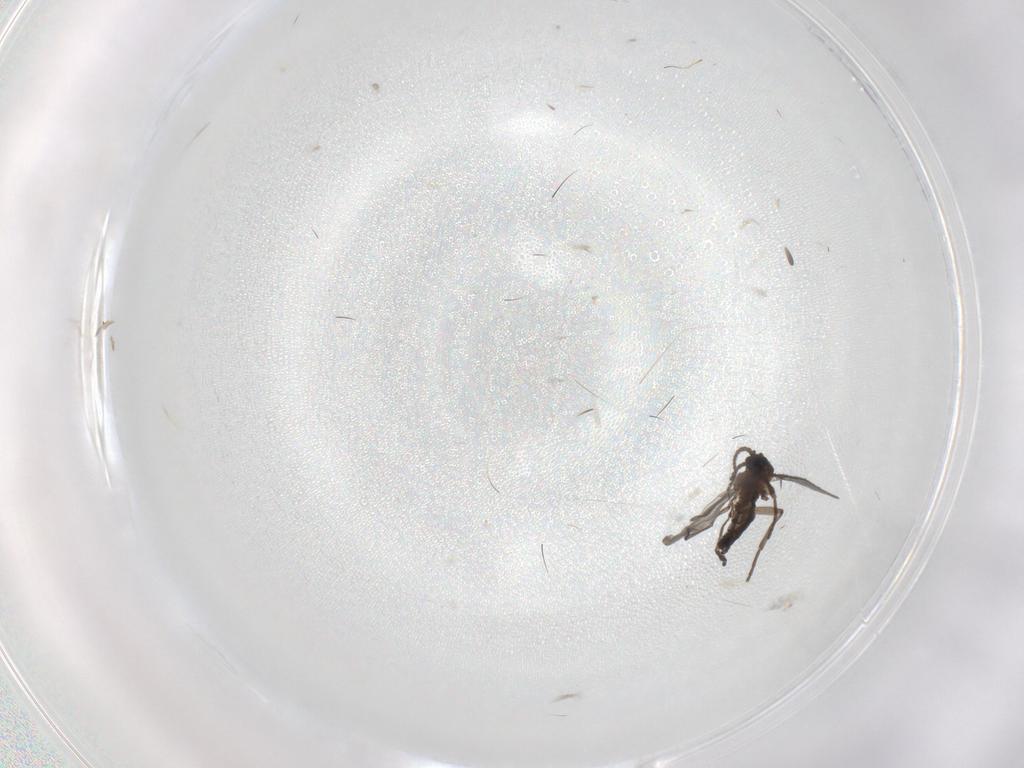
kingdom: Animalia
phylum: Arthropoda
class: Insecta
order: Diptera
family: Sciaridae
